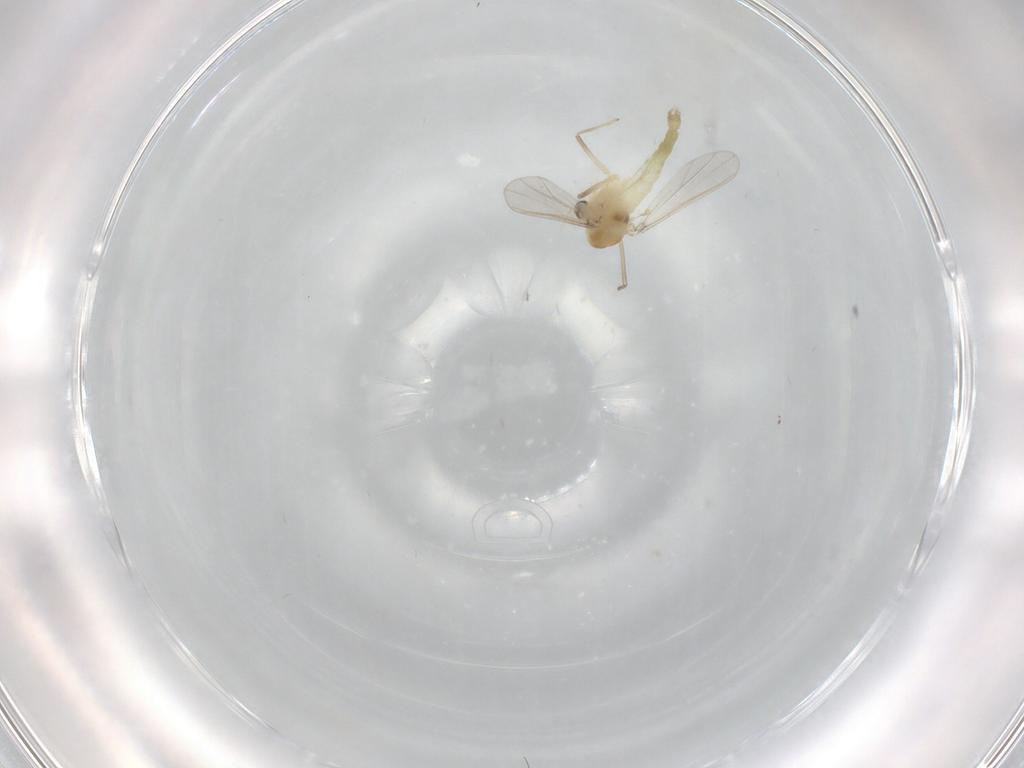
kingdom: Animalia
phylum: Arthropoda
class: Insecta
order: Diptera
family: Chironomidae
